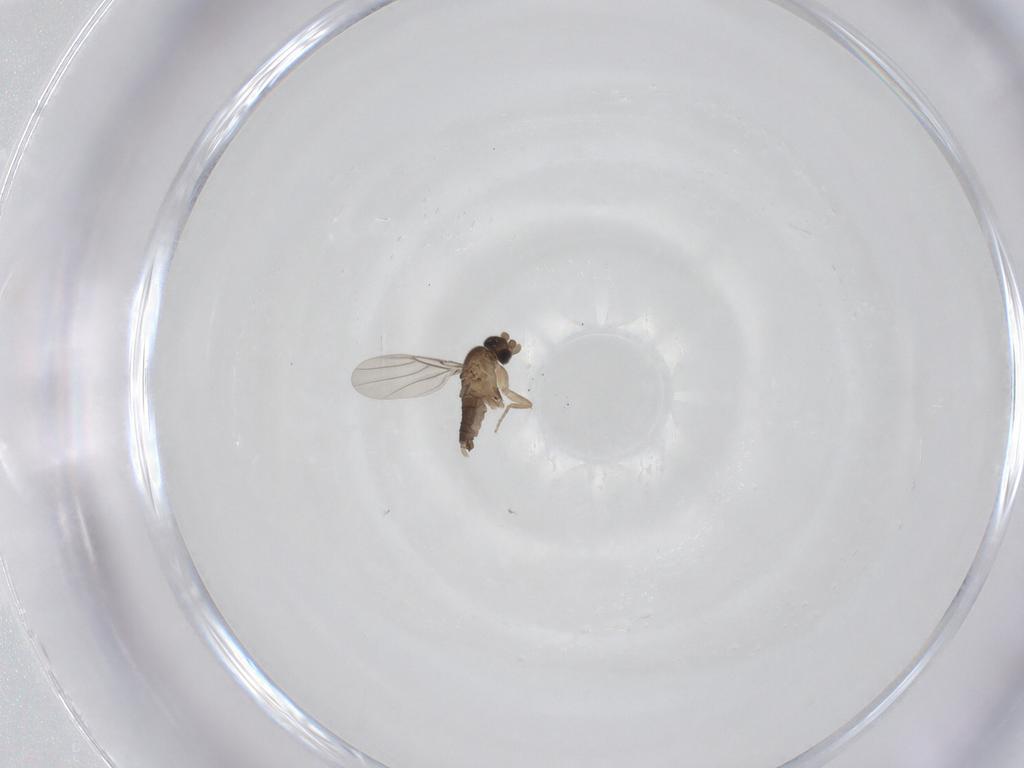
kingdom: Animalia
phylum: Arthropoda
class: Insecta
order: Diptera
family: Phoridae
